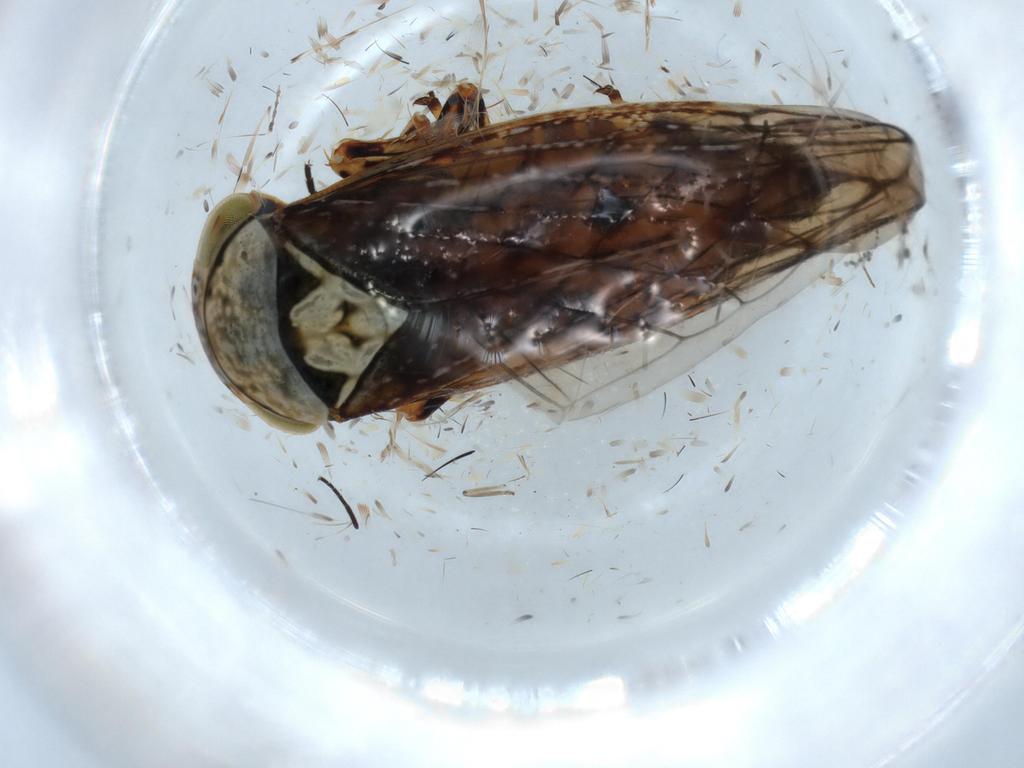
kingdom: Animalia
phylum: Arthropoda
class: Insecta
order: Hemiptera
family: Cicadellidae
